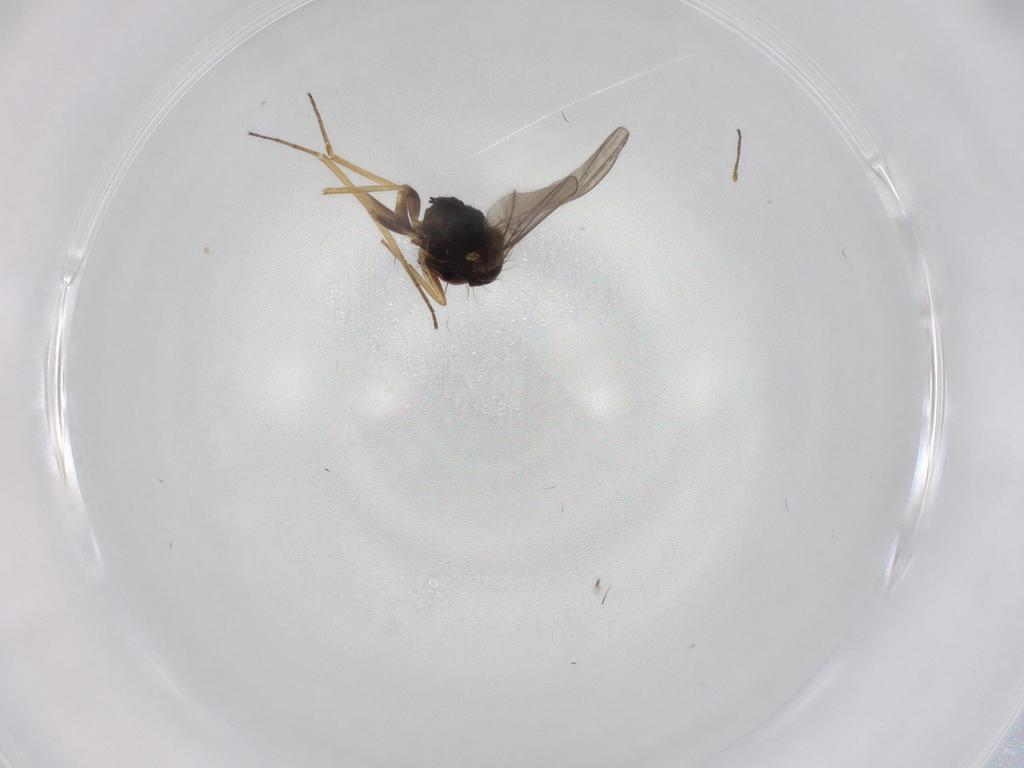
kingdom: Animalia
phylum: Arthropoda
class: Insecta
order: Diptera
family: Dolichopodidae
